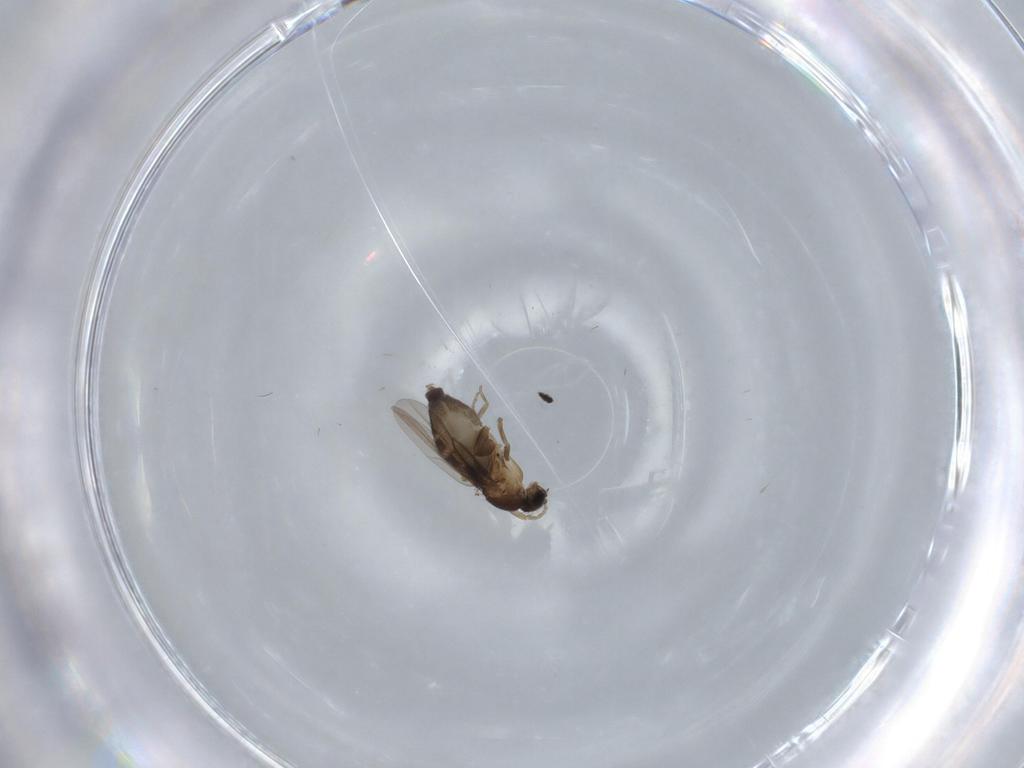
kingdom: Animalia
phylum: Arthropoda
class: Insecta
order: Diptera
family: Phoridae
